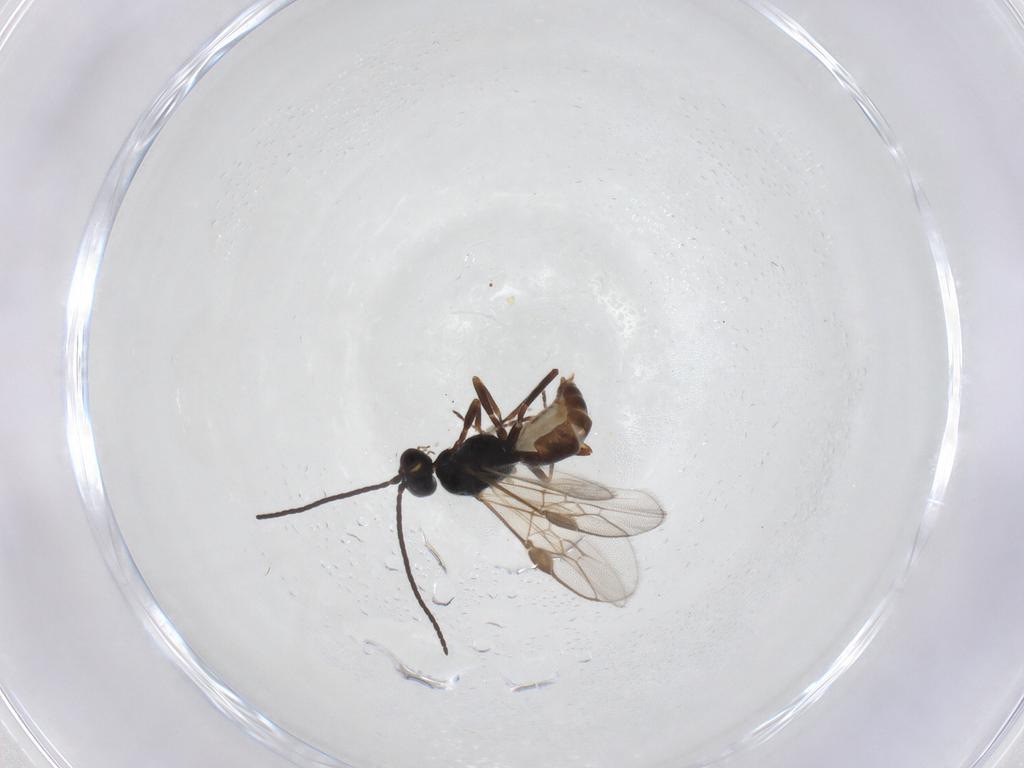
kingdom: Animalia
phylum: Arthropoda
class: Insecta
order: Hymenoptera
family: Braconidae
